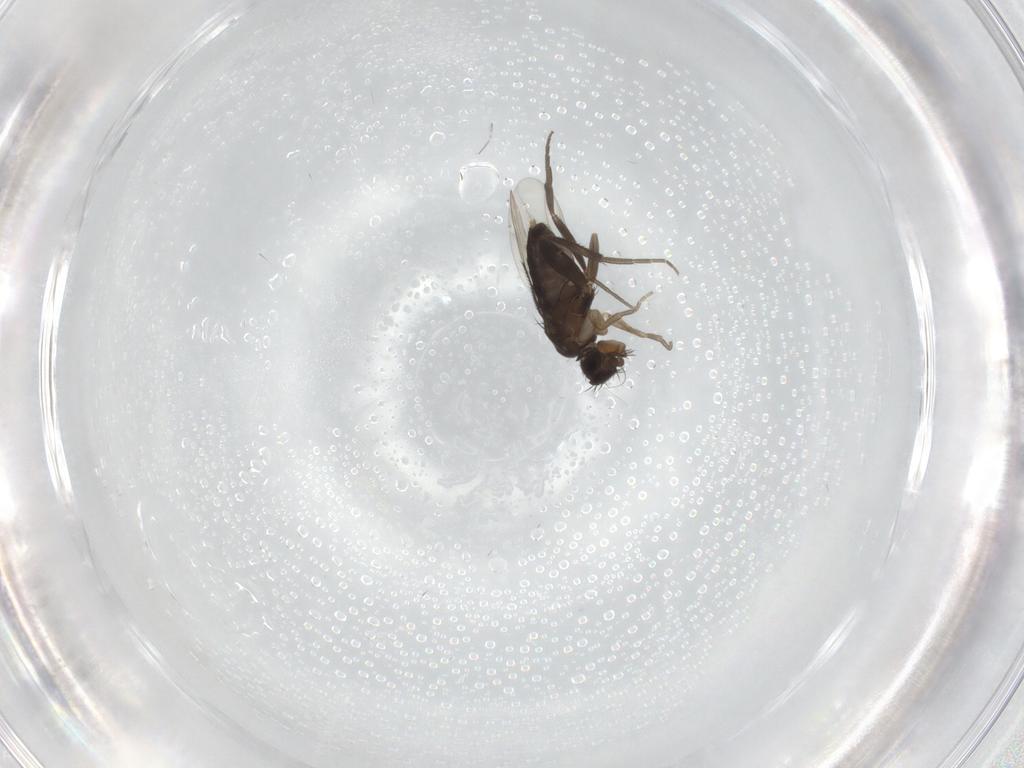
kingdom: Animalia
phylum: Arthropoda
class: Insecta
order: Diptera
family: Phoridae
